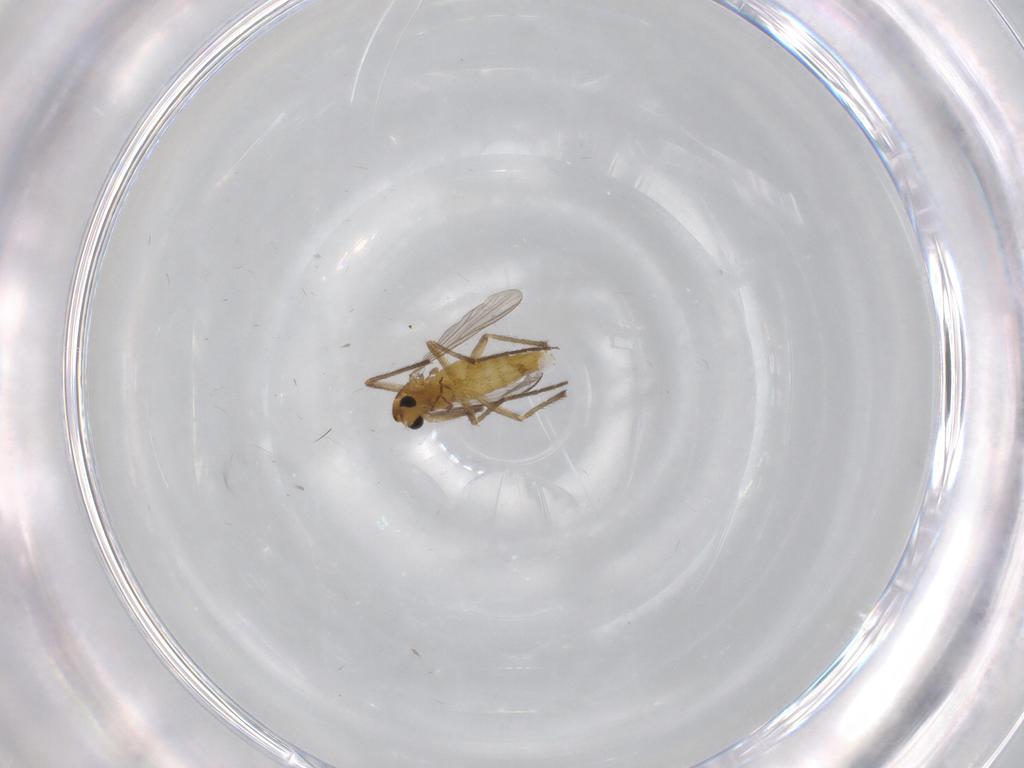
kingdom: Animalia
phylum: Arthropoda
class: Insecta
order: Diptera
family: Chironomidae
